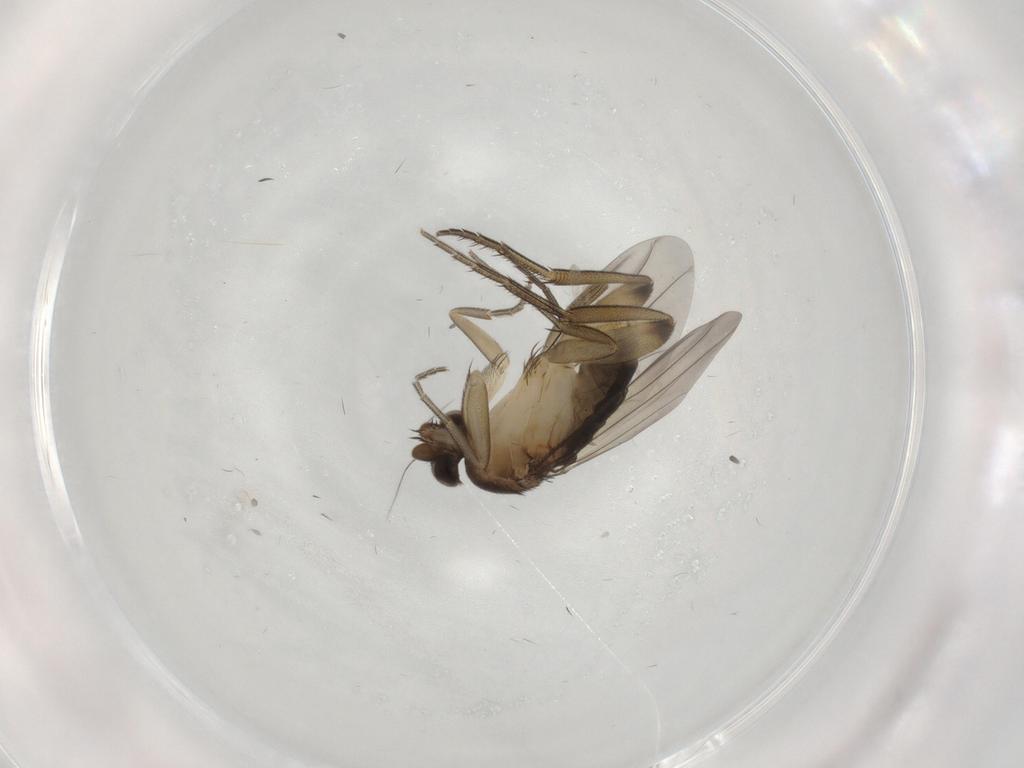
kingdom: Animalia
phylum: Arthropoda
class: Insecta
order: Diptera
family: Phoridae
